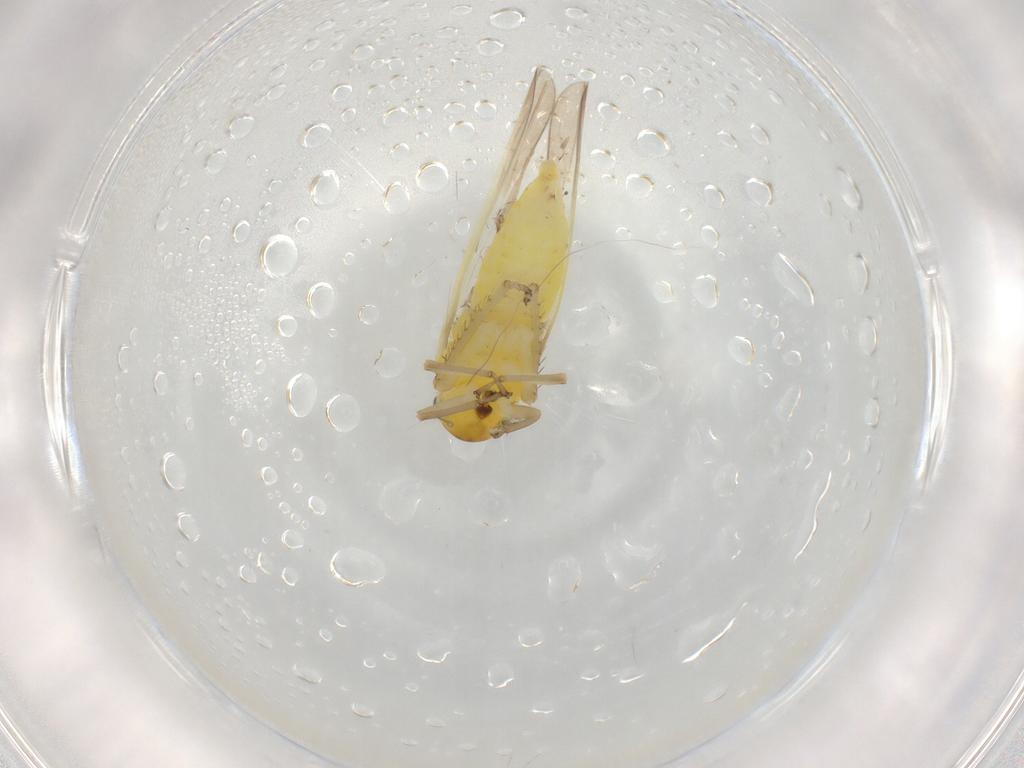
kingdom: Animalia
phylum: Arthropoda
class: Insecta
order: Hemiptera
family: Cicadellidae
